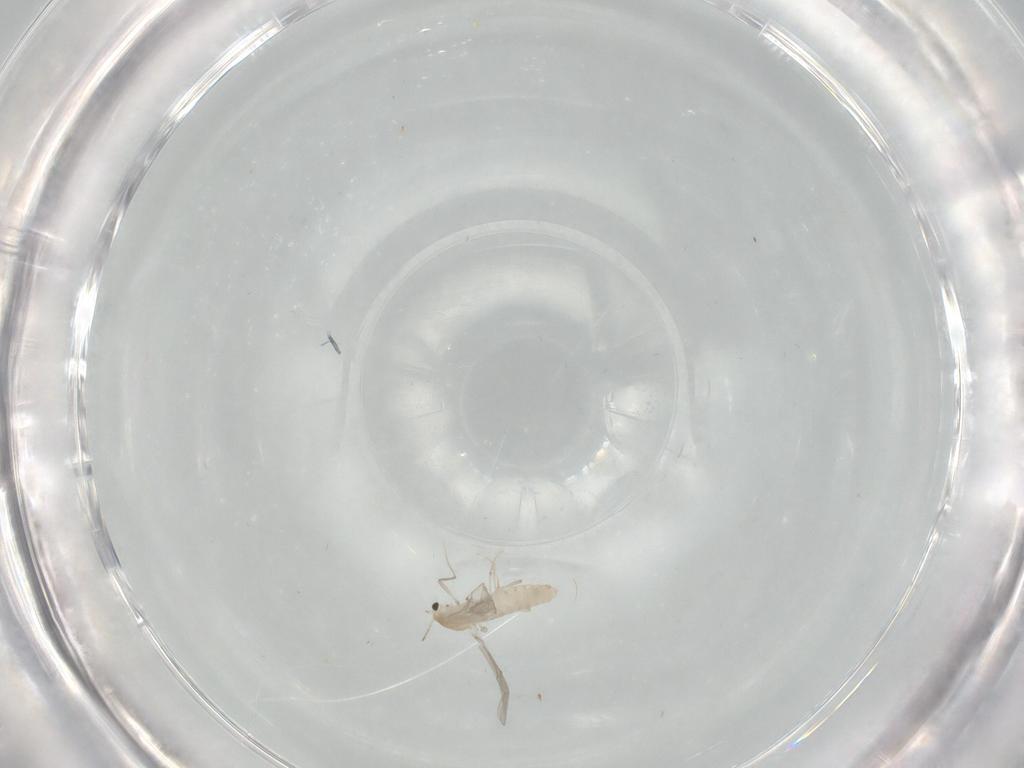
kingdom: Animalia
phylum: Arthropoda
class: Insecta
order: Diptera
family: Chironomidae
